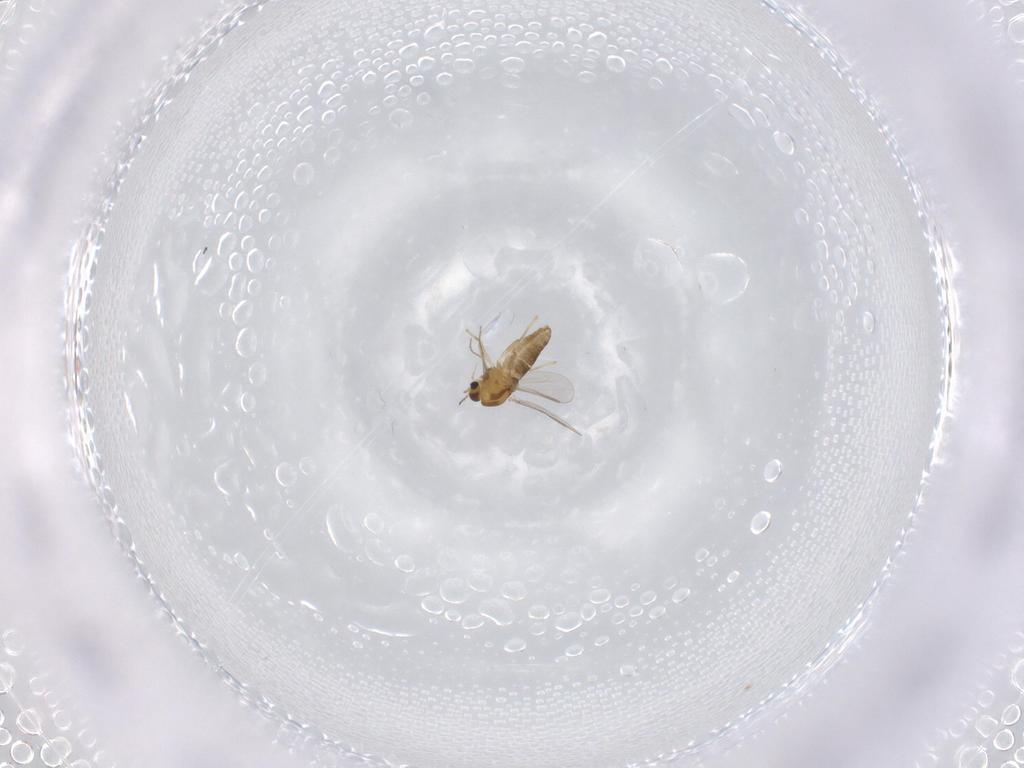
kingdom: Animalia
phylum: Arthropoda
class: Insecta
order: Diptera
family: Chironomidae
